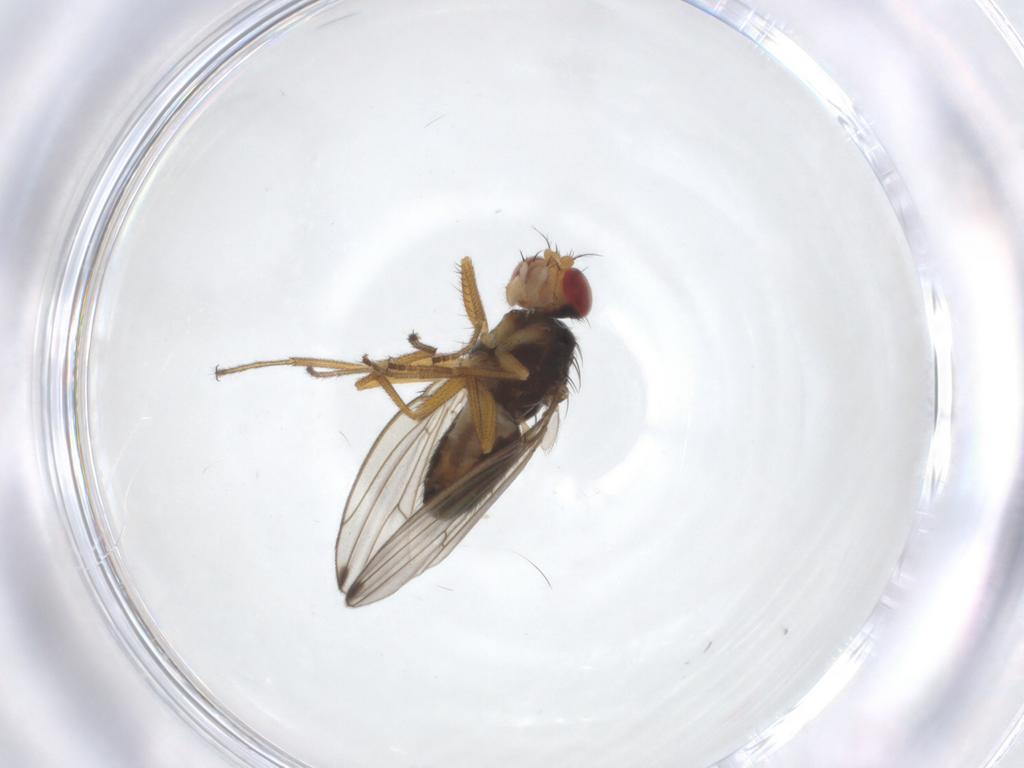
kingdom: Animalia
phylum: Arthropoda
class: Insecta
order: Diptera
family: Drosophilidae
